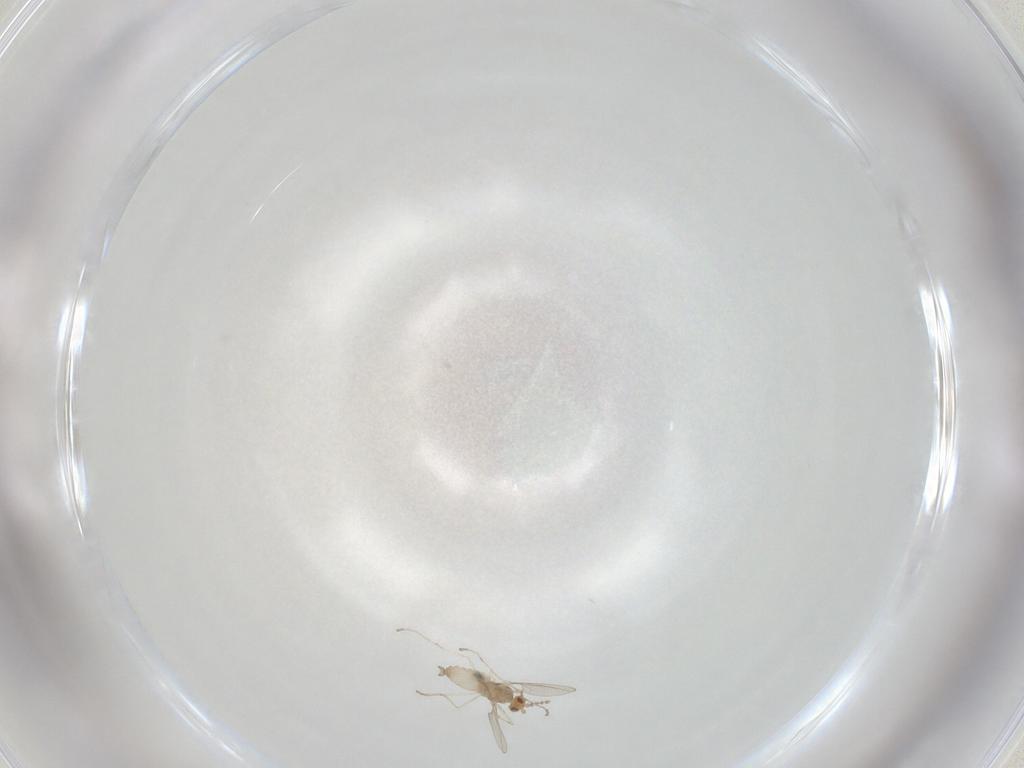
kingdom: Animalia
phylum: Arthropoda
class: Insecta
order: Diptera
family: Cecidomyiidae
